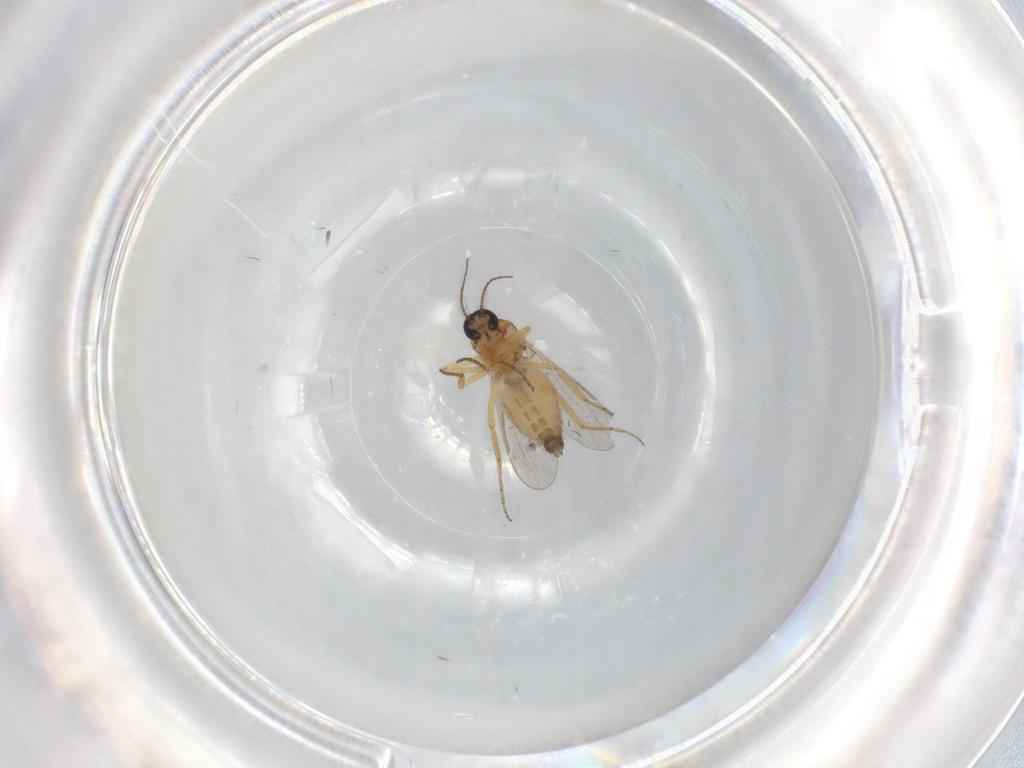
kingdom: Animalia
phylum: Arthropoda
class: Insecta
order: Diptera
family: Ceratopogonidae
